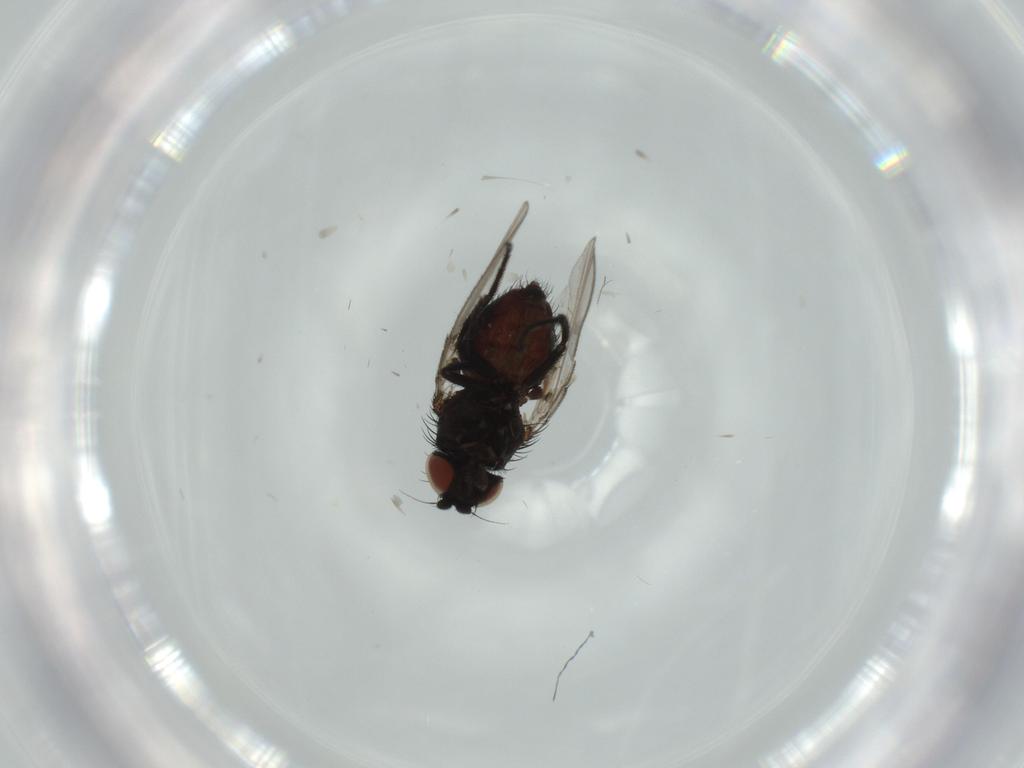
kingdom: Animalia
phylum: Arthropoda
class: Insecta
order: Diptera
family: Milichiidae
